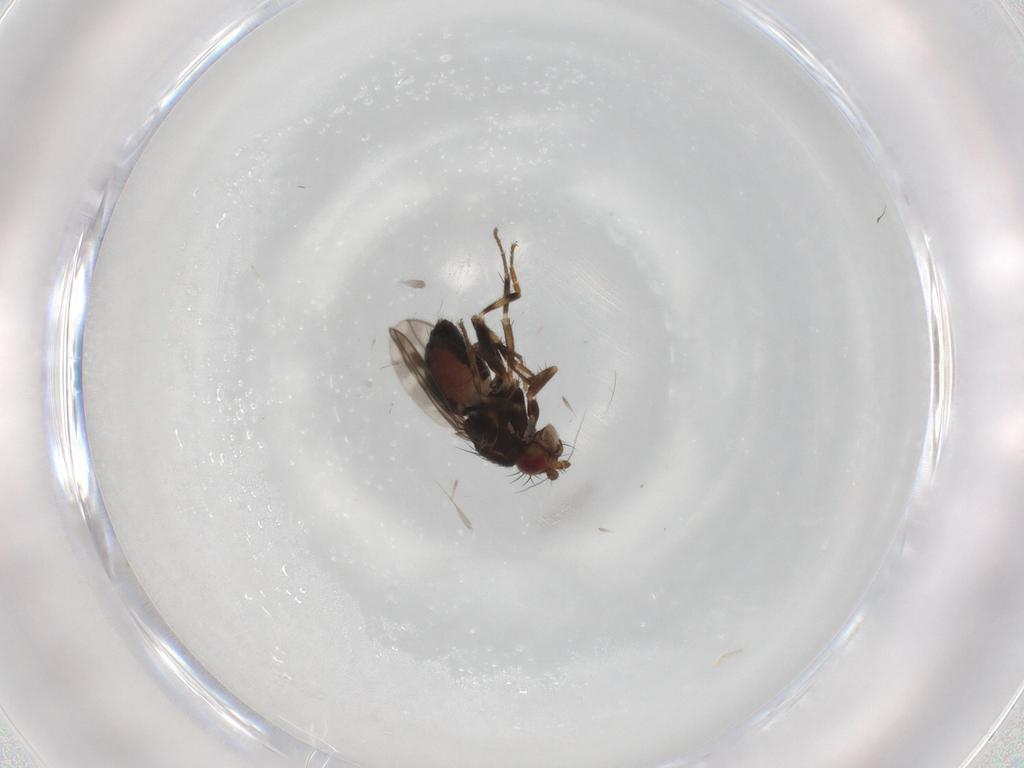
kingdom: Animalia
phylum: Arthropoda
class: Insecta
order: Diptera
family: Sphaeroceridae
